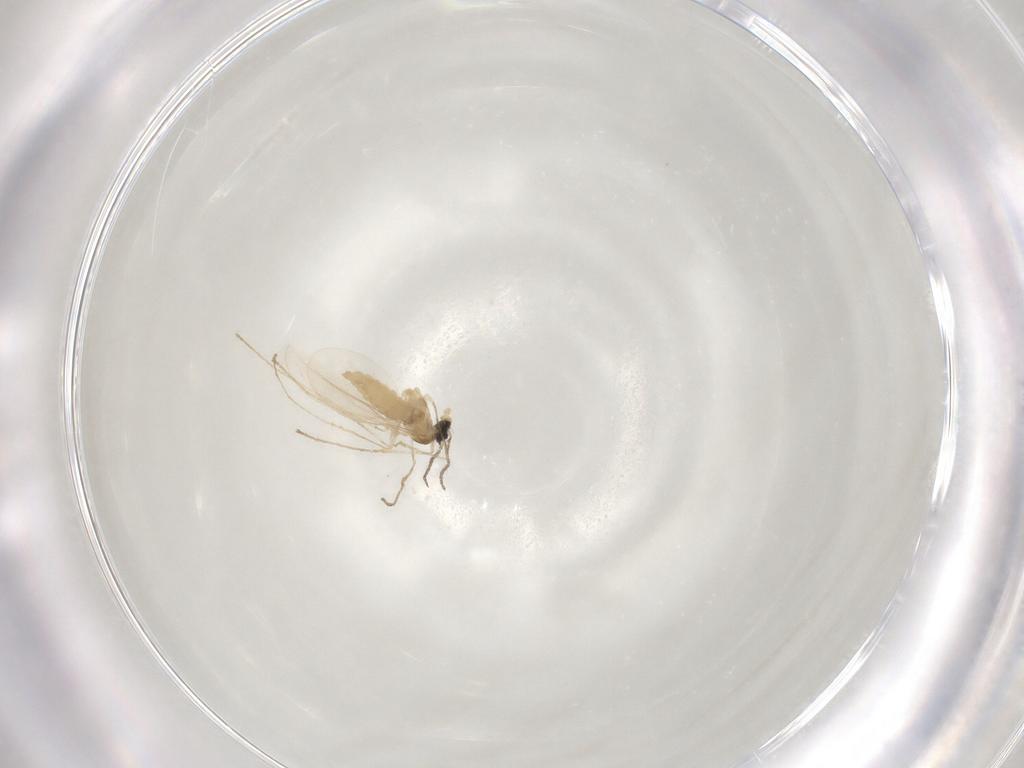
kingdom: Animalia
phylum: Arthropoda
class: Insecta
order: Diptera
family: Cecidomyiidae
